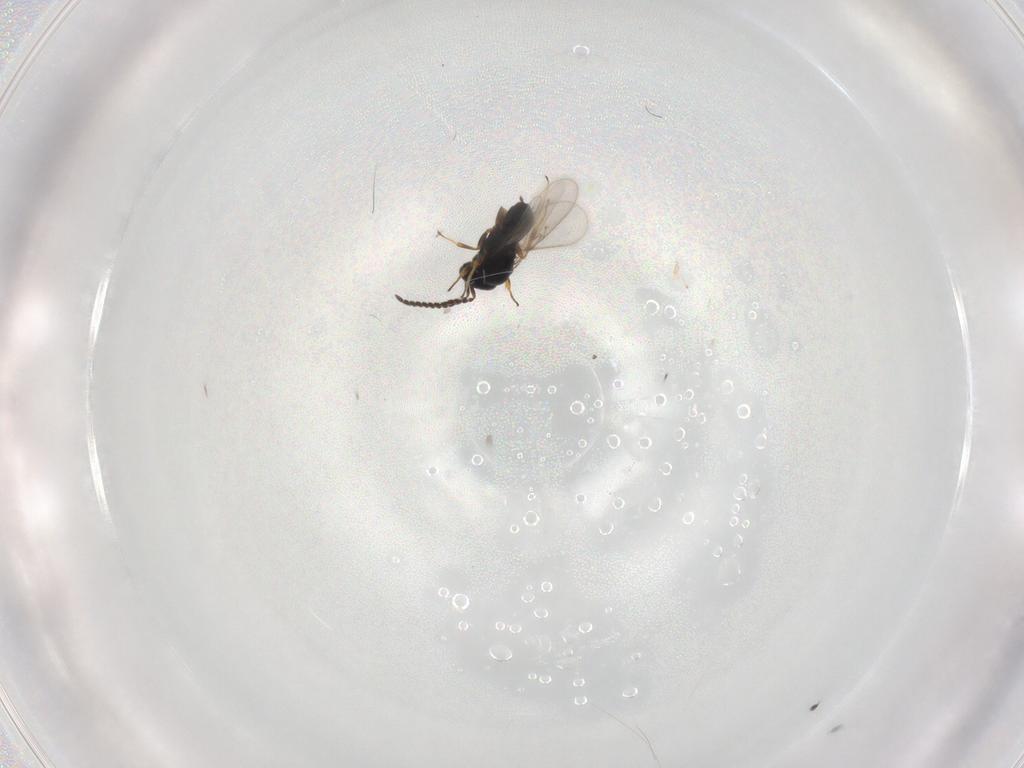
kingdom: Animalia
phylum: Arthropoda
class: Insecta
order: Hymenoptera
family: Scelionidae
